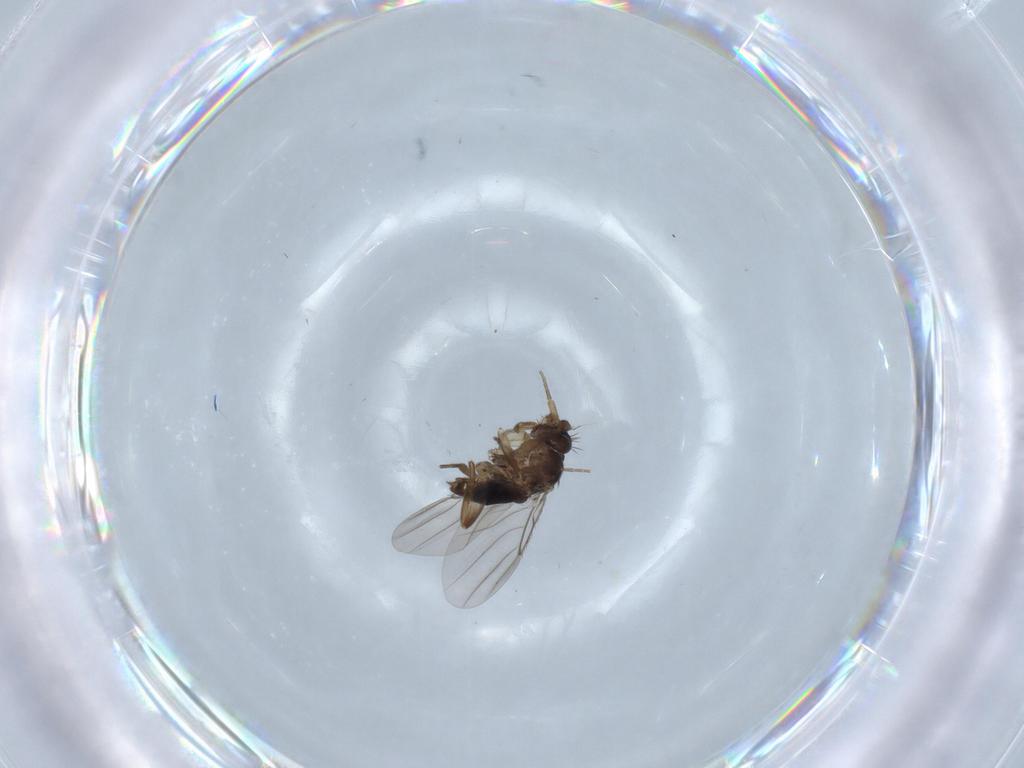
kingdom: Animalia
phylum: Arthropoda
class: Insecta
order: Diptera
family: Phoridae
